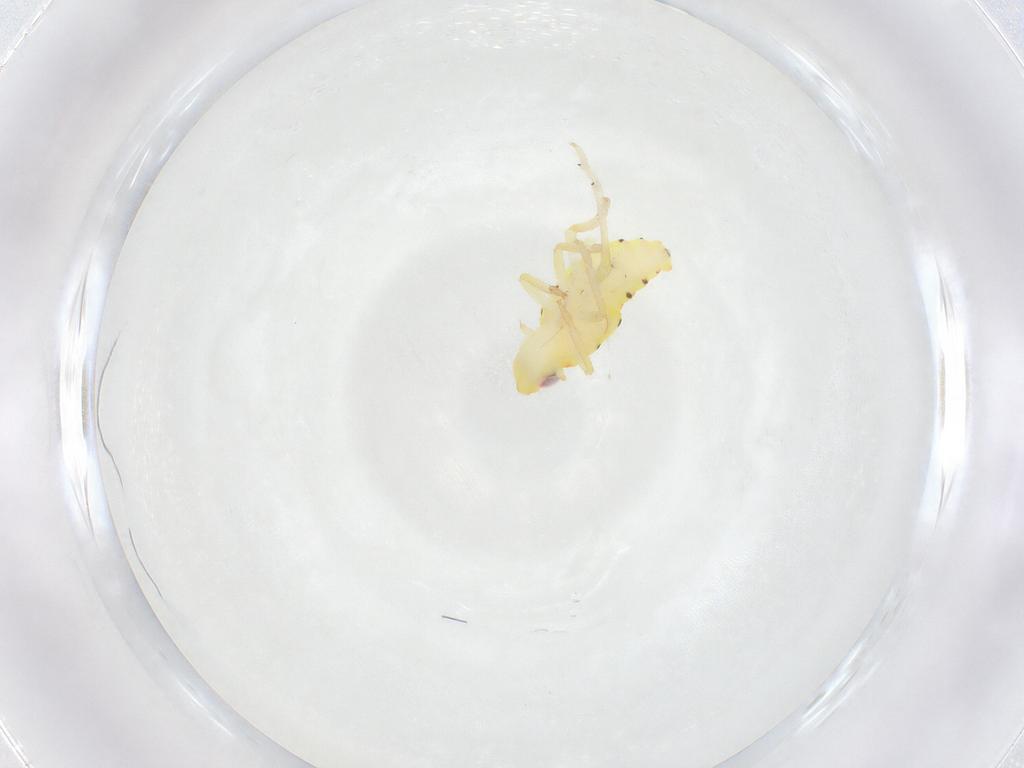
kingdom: Animalia
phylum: Arthropoda
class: Insecta
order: Hemiptera
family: Tropiduchidae
